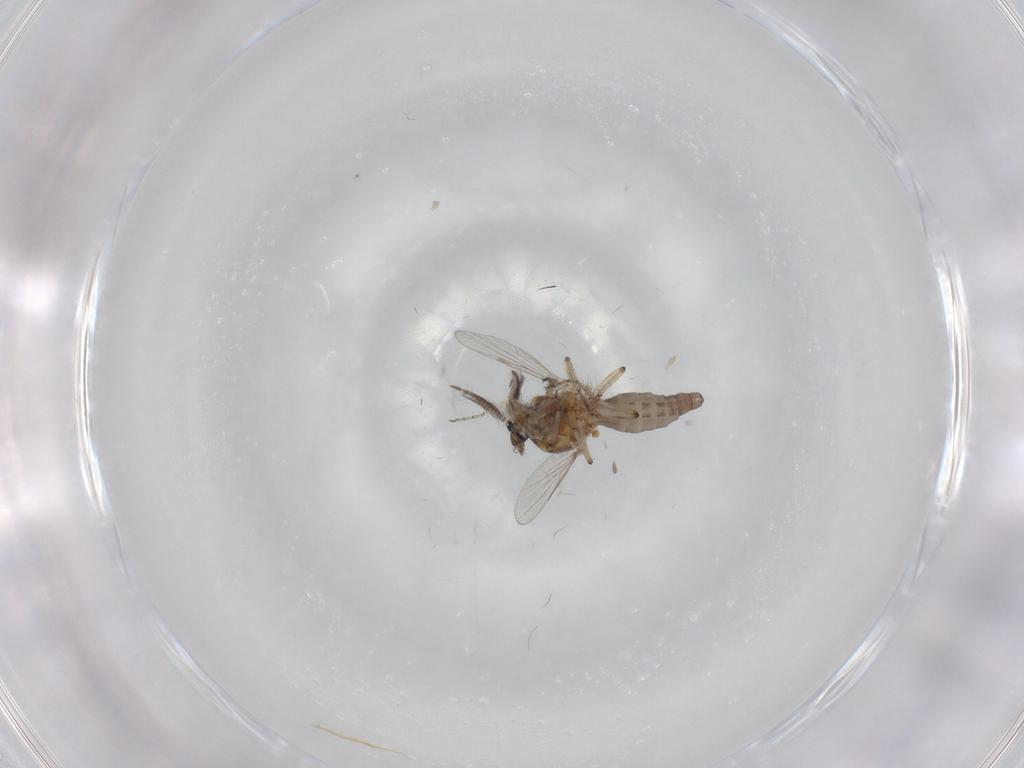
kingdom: Animalia
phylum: Arthropoda
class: Insecta
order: Diptera
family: Ceratopogonidae
